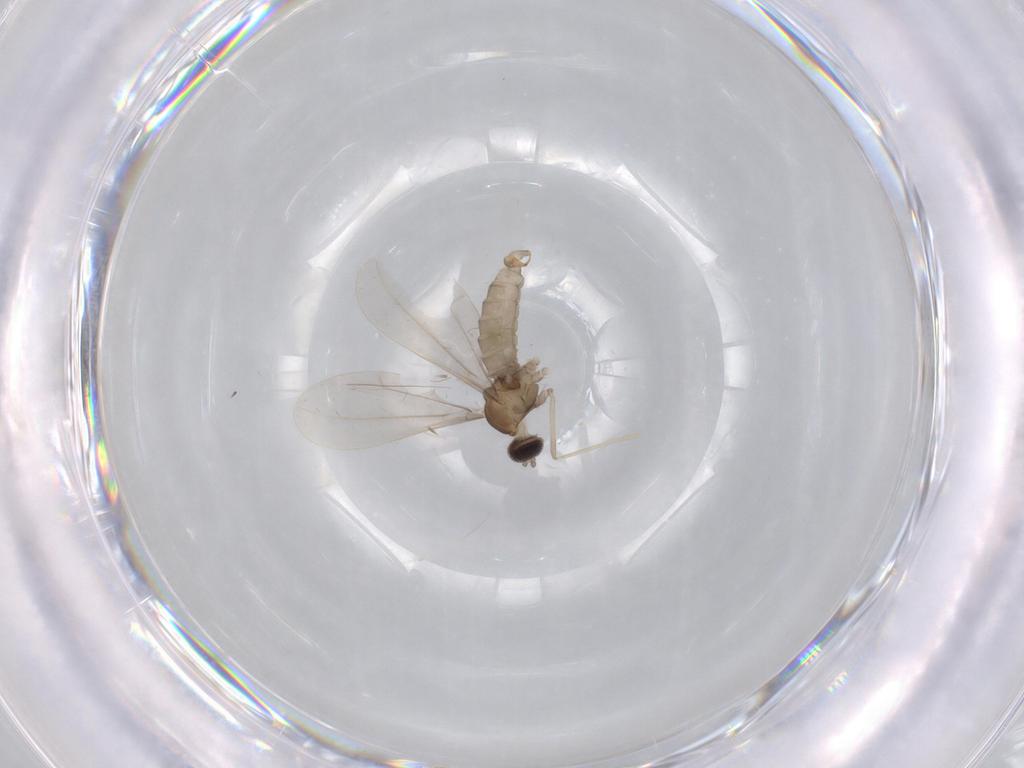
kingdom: Animalia
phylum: Arthropoda
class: Insecta
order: Diptera
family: Cecidomyiidae
